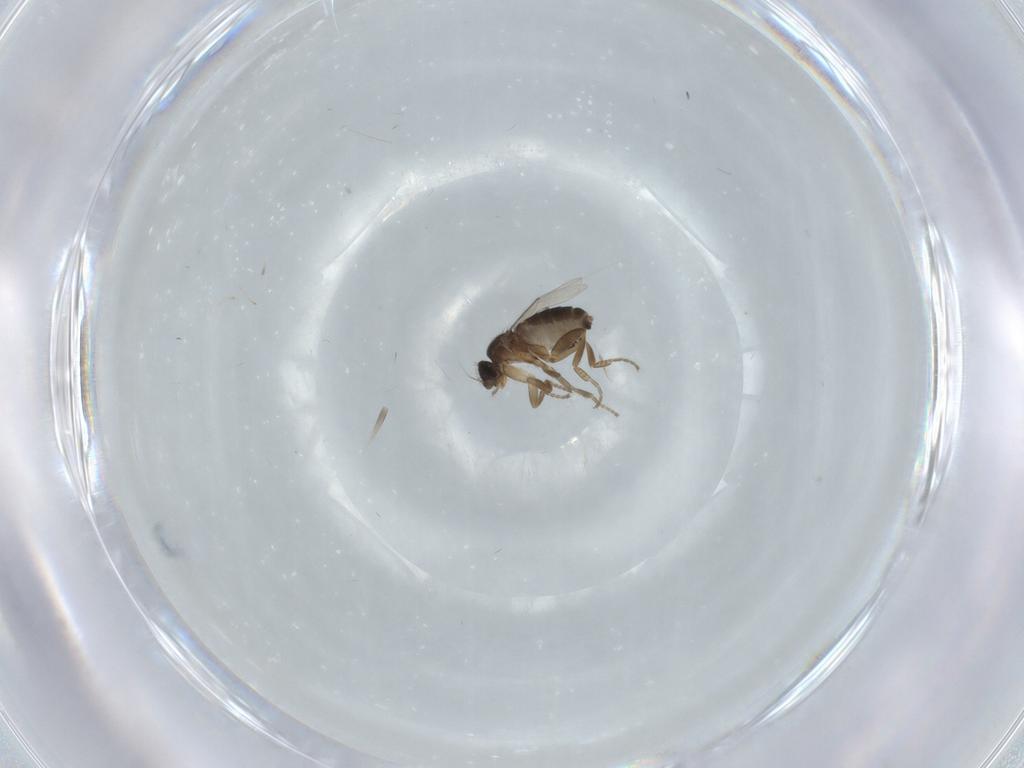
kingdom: Animalia
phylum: Arthropoda
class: Insecta
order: Diptera
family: Phoridae
